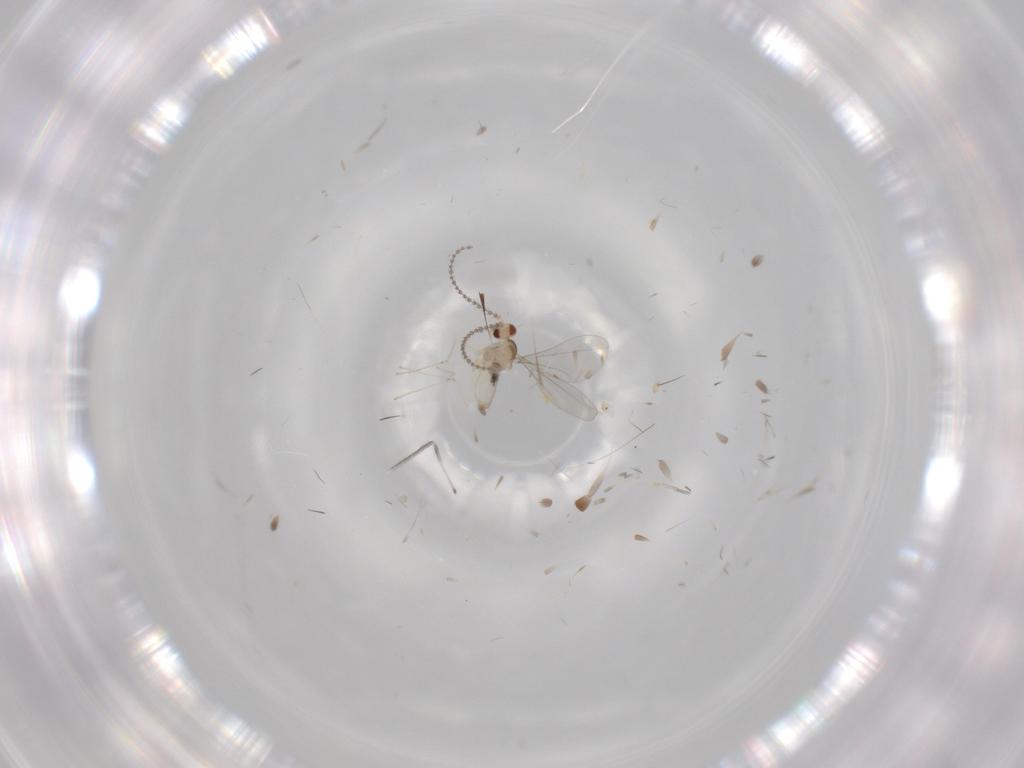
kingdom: Animalia
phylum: Arthropoda
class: Insecta
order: Diptera
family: Cecidomyiidae
